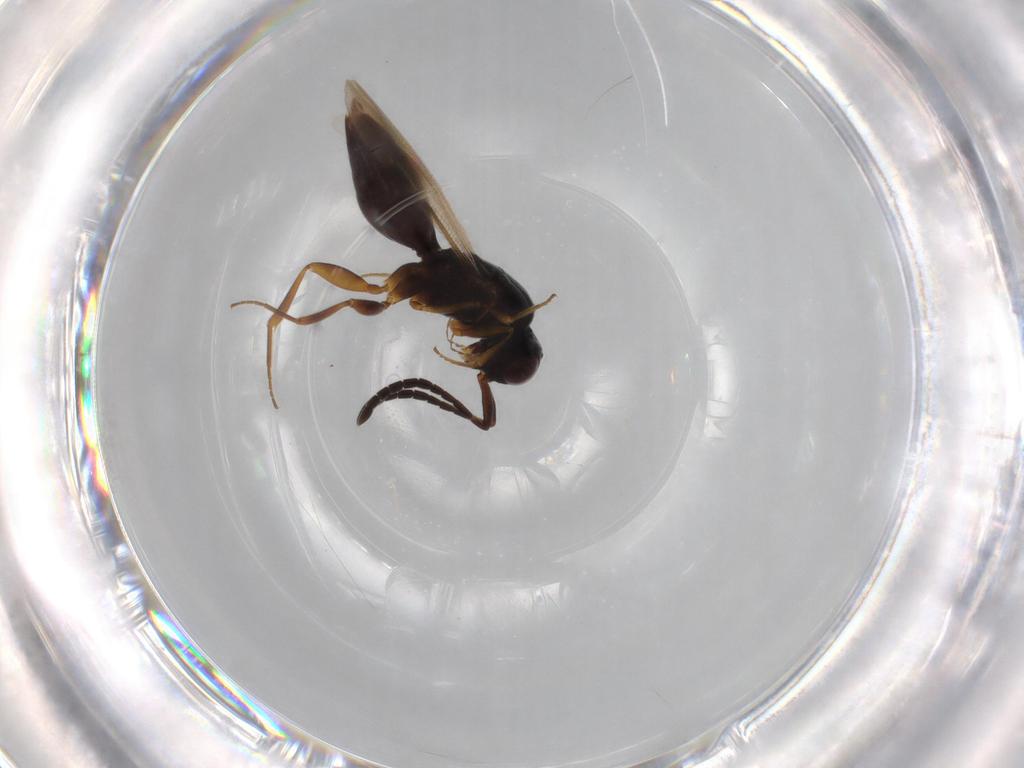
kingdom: Animalia
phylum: Arthropoda
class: Insecta
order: Hymenoptera
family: Megaspilidae
